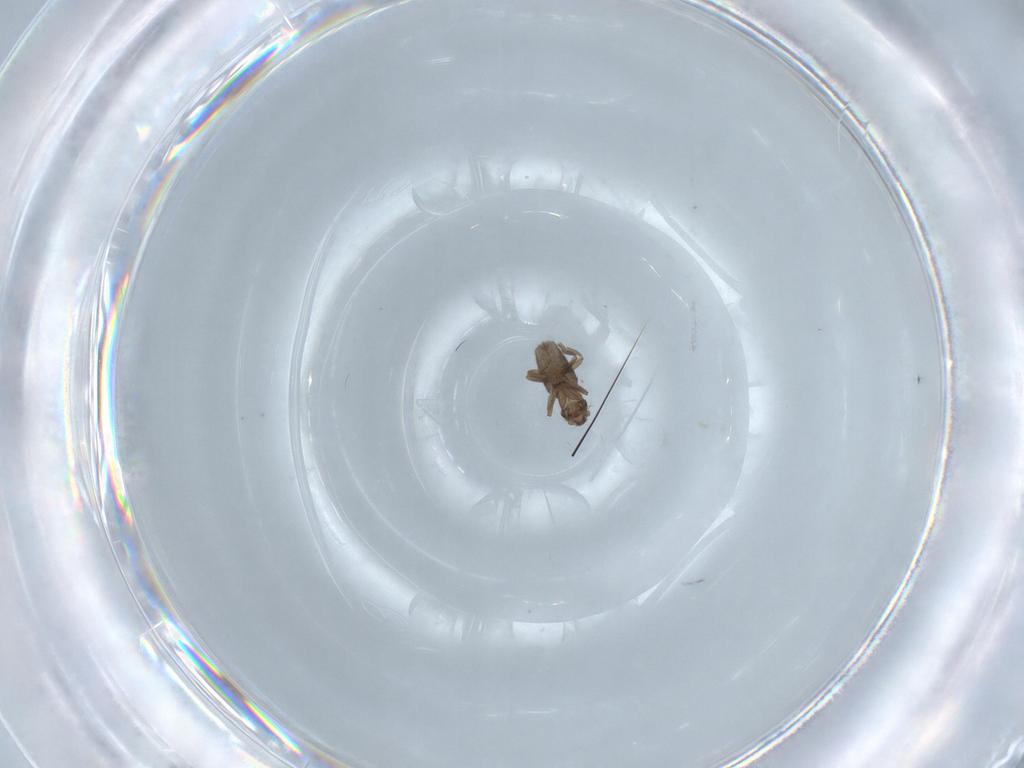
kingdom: Animalia
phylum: Arthropoda
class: Insecta
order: Diptera
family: Phoridae
